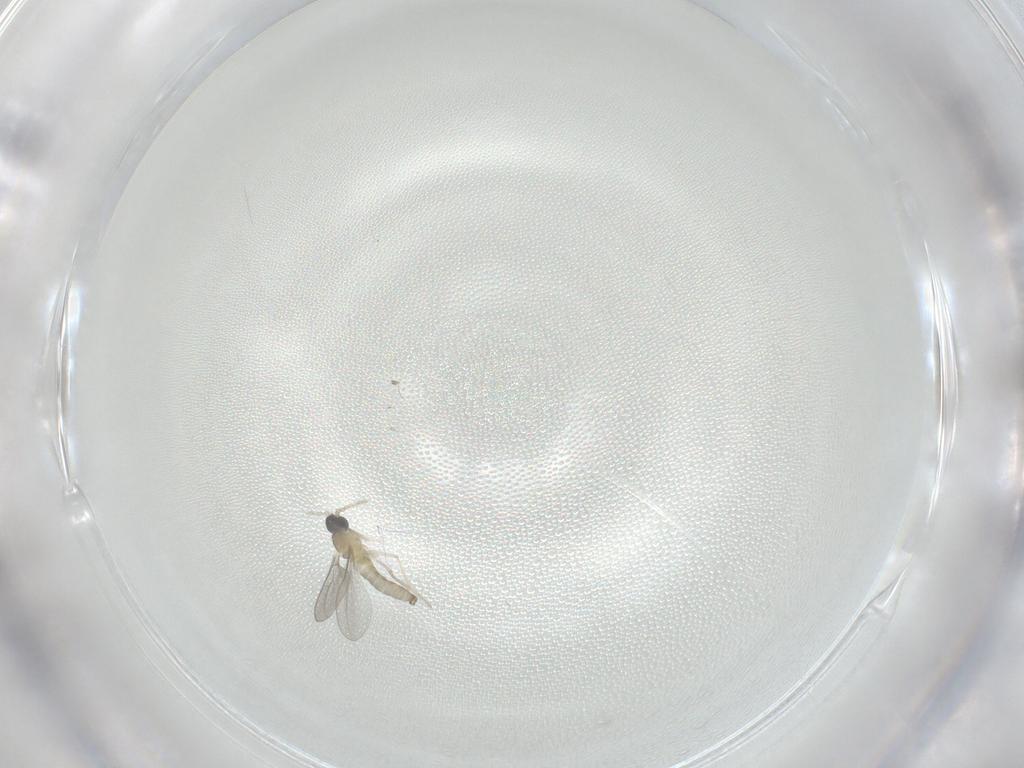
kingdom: Animalia
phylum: Arthropoda
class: Insecta
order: Diptera
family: Cecidomyiidae
